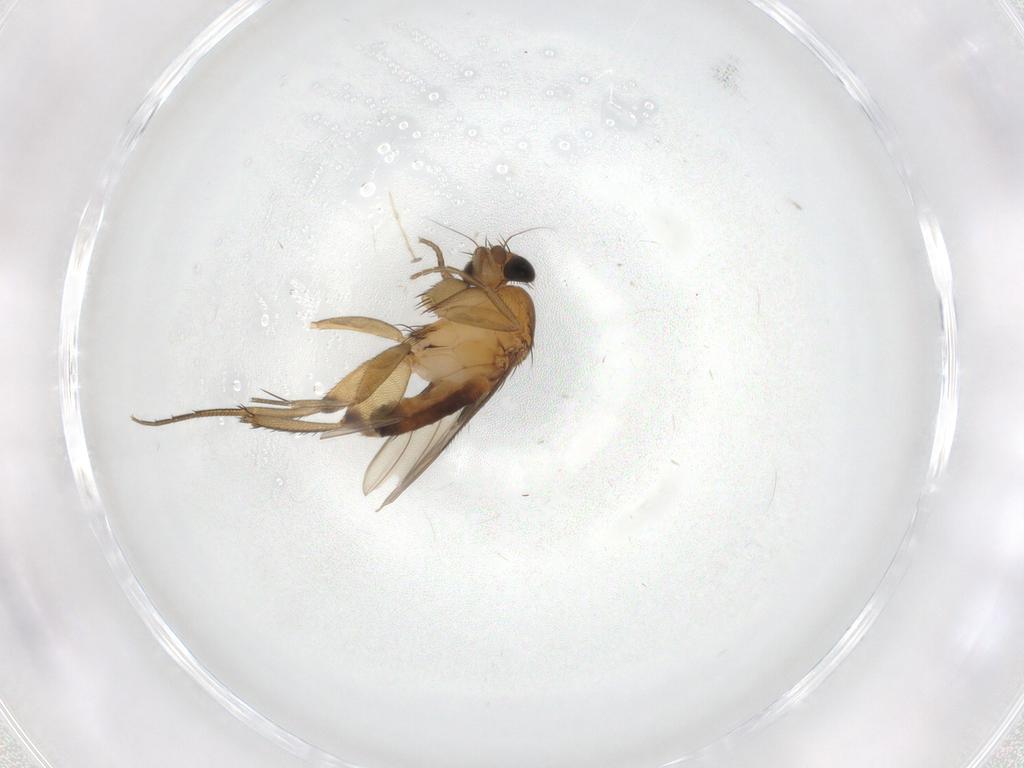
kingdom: Animalia
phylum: Arthropoda
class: Insecta
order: Diptera
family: Phoridae
